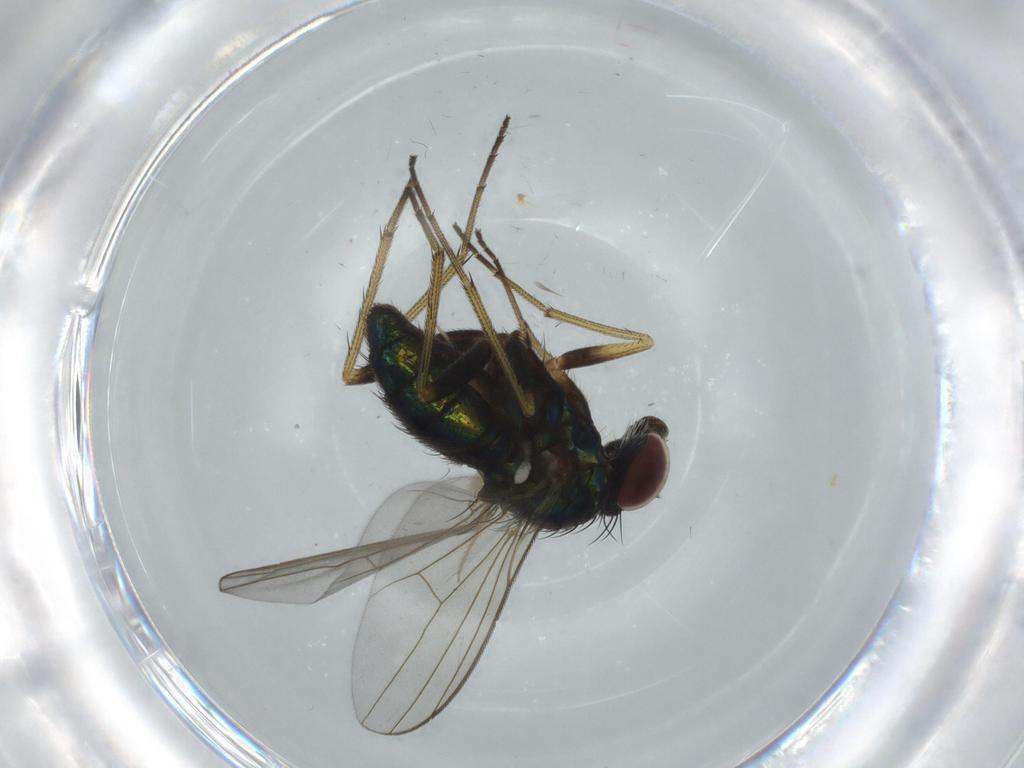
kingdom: Animalia
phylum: Arthropoda
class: Insecta
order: Diptera
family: Dolichopodidae
